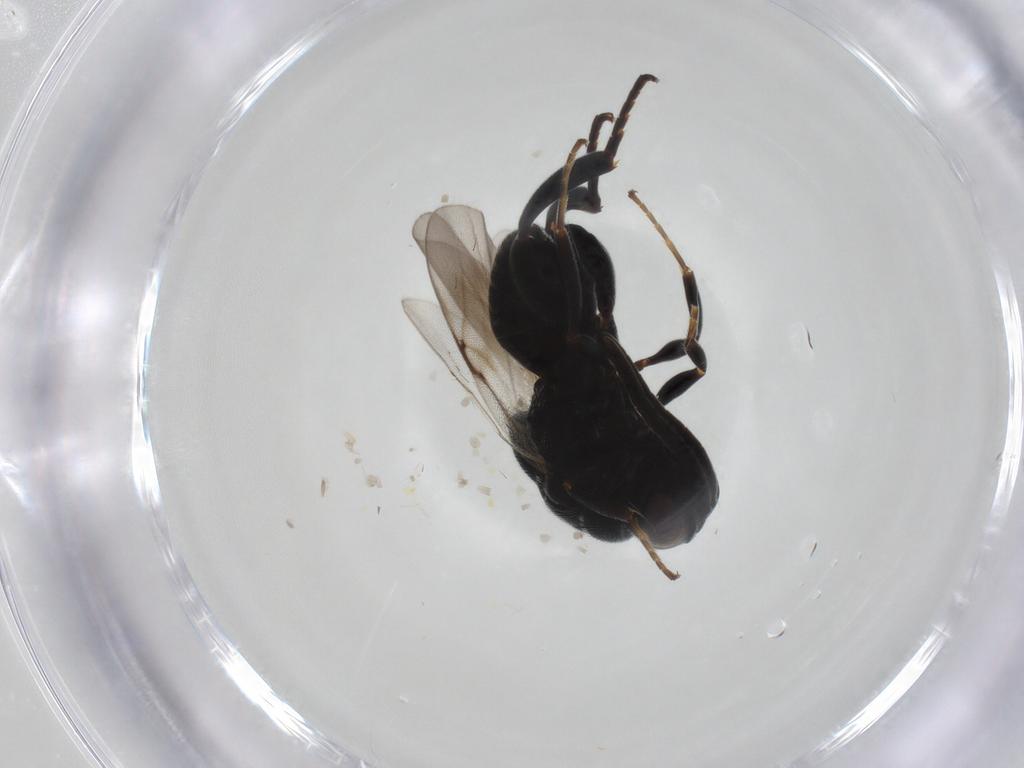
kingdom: Animalia
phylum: Arthropoda
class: Insecta
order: Hymenoptera
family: Chalcididae
